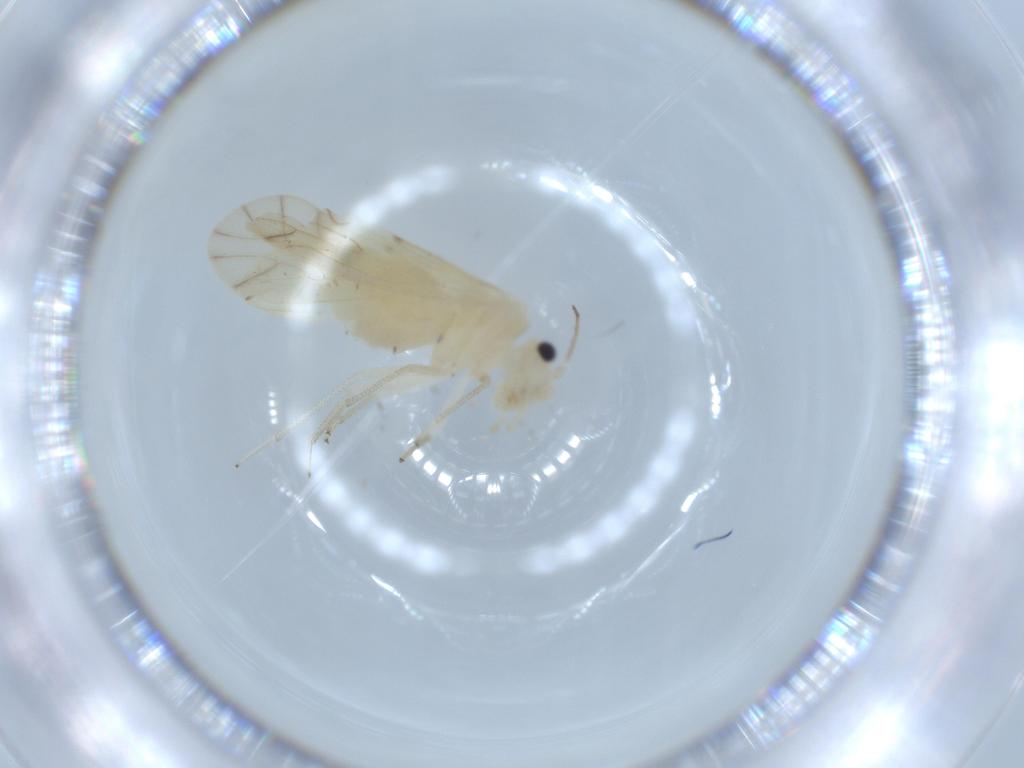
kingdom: Animalia
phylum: Arthropoda
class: Insecta
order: Psocodea
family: Caeciliusidae
